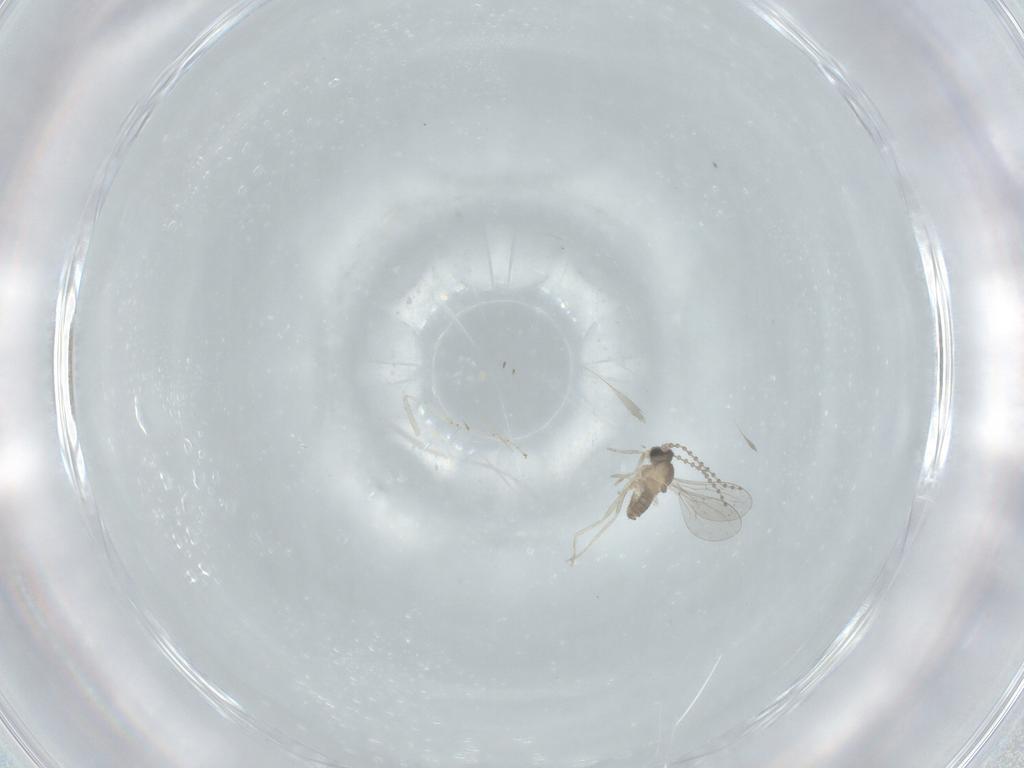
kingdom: Animalia
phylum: Arthropoda
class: Insecta
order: Diptera
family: Cecidomyiidae
